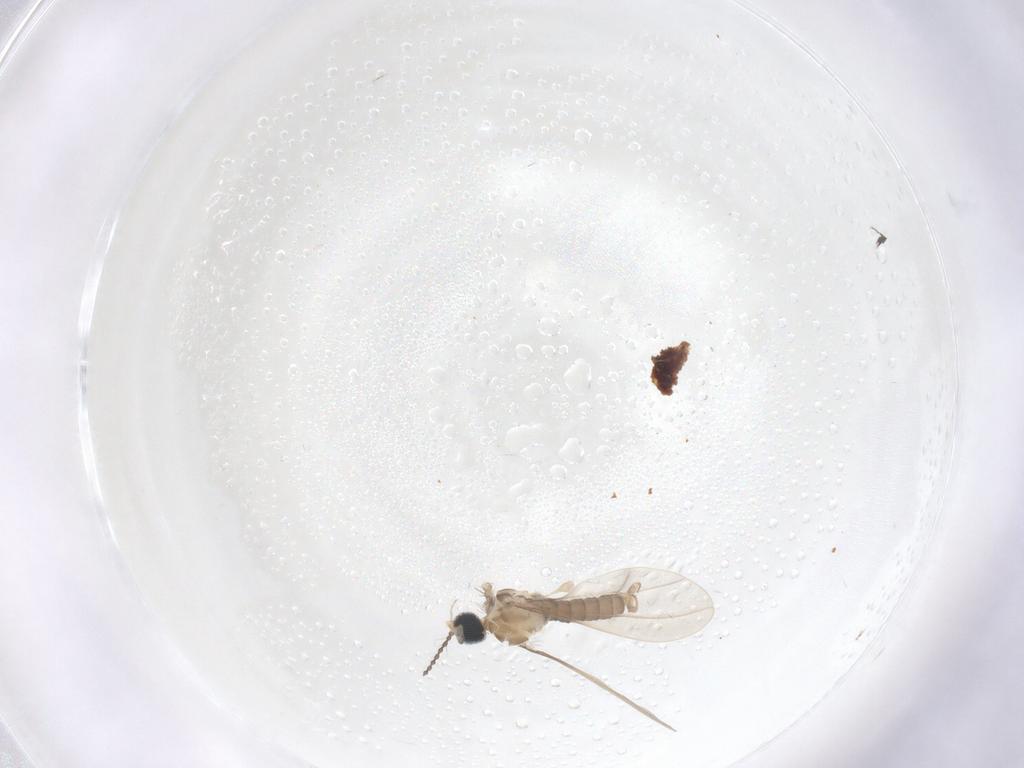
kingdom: Animalia
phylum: Arthropoda
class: Insecta
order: Diptera
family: Cecidomyiidae
